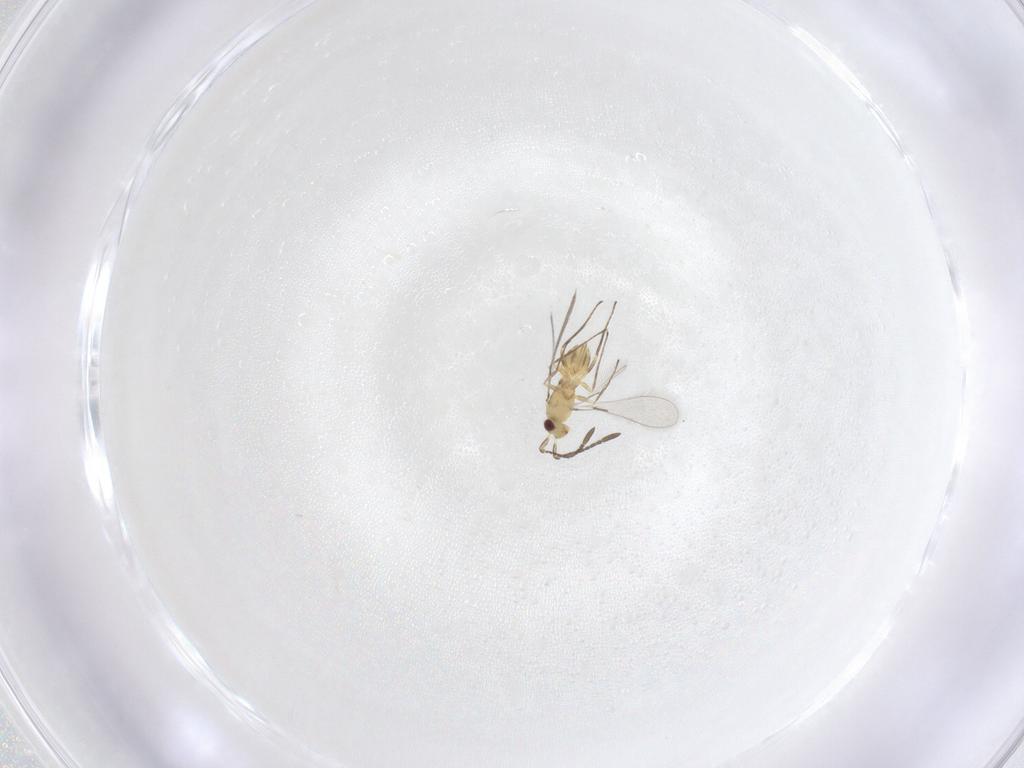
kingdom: Animalia
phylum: Arthropoda
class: Insecta
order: Hymenoptera
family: Mymaridae
